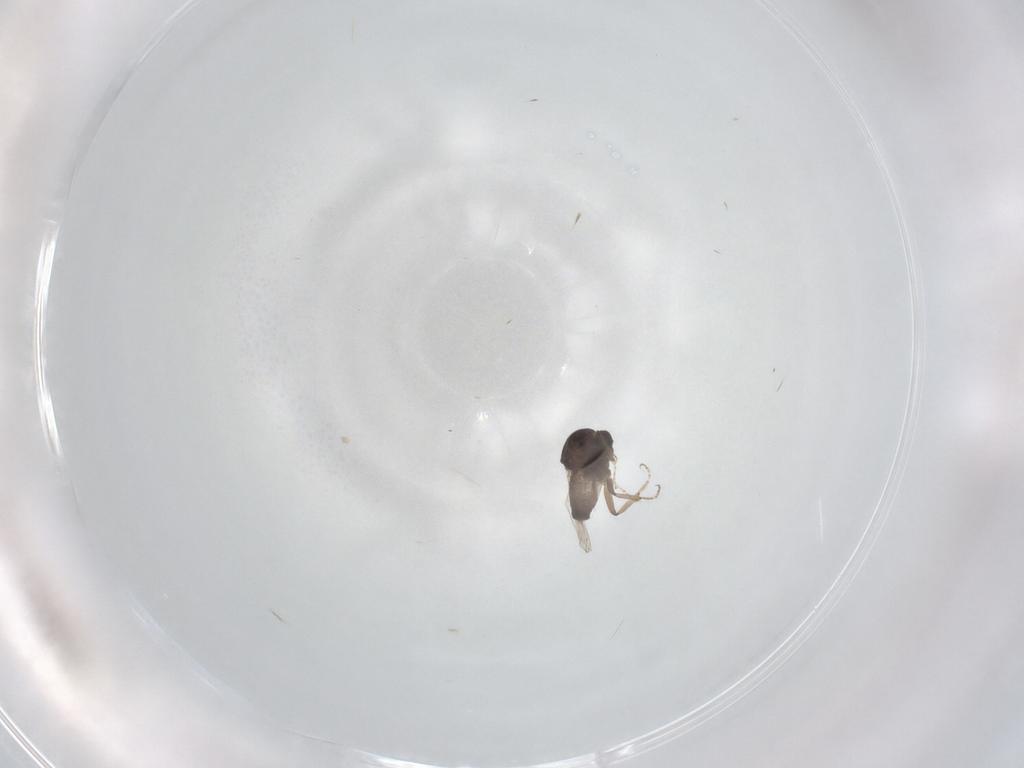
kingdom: Animalia
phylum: Arthropoda
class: Insecta
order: Diptera
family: Ceratopogonidae
